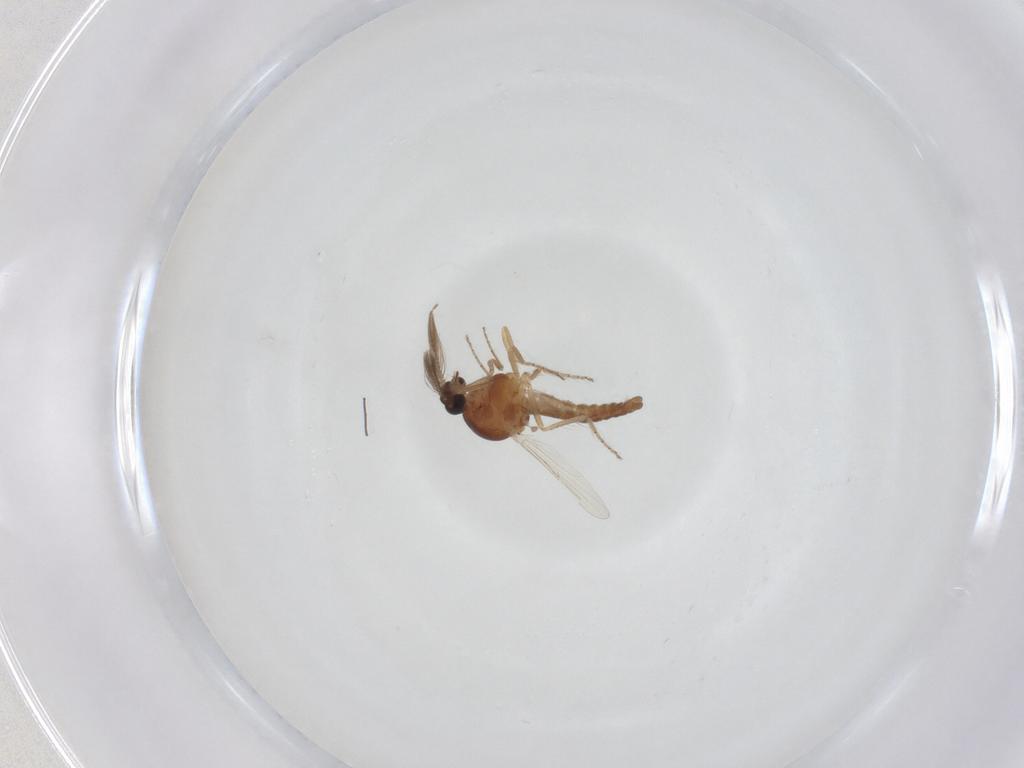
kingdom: Animalia
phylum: Arthropoda
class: Insecta
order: Diptera
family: Ceratopogonidae
